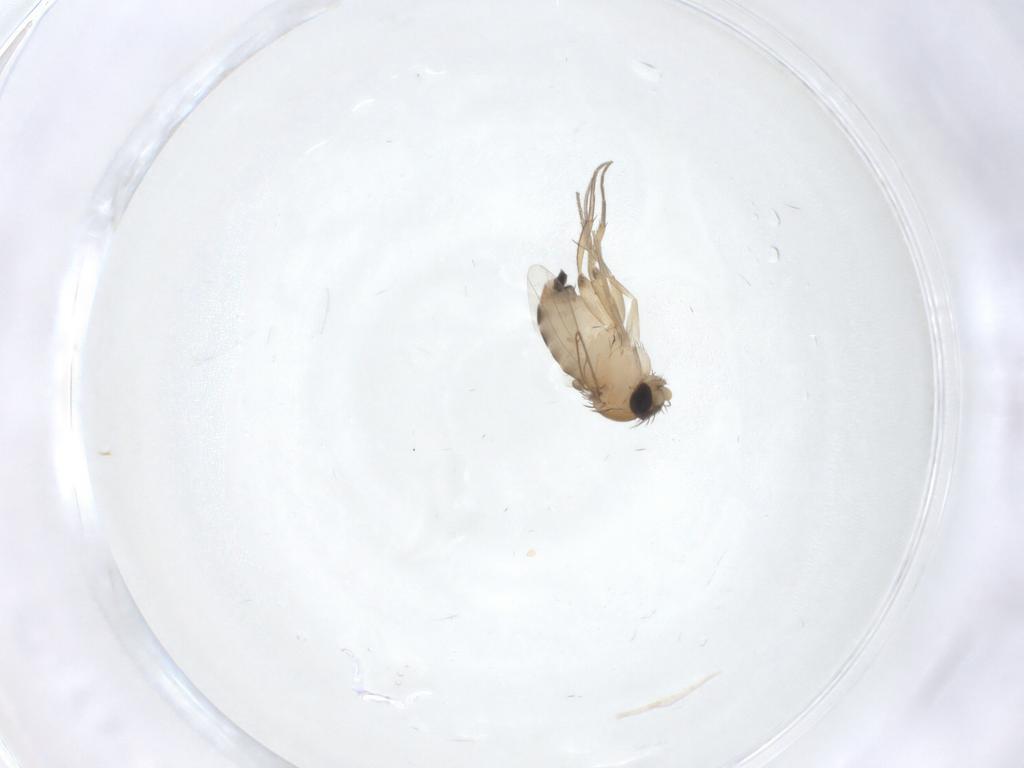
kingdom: Animalia
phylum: Arthropoda
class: Insecta
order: Diptera
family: Phoridae
